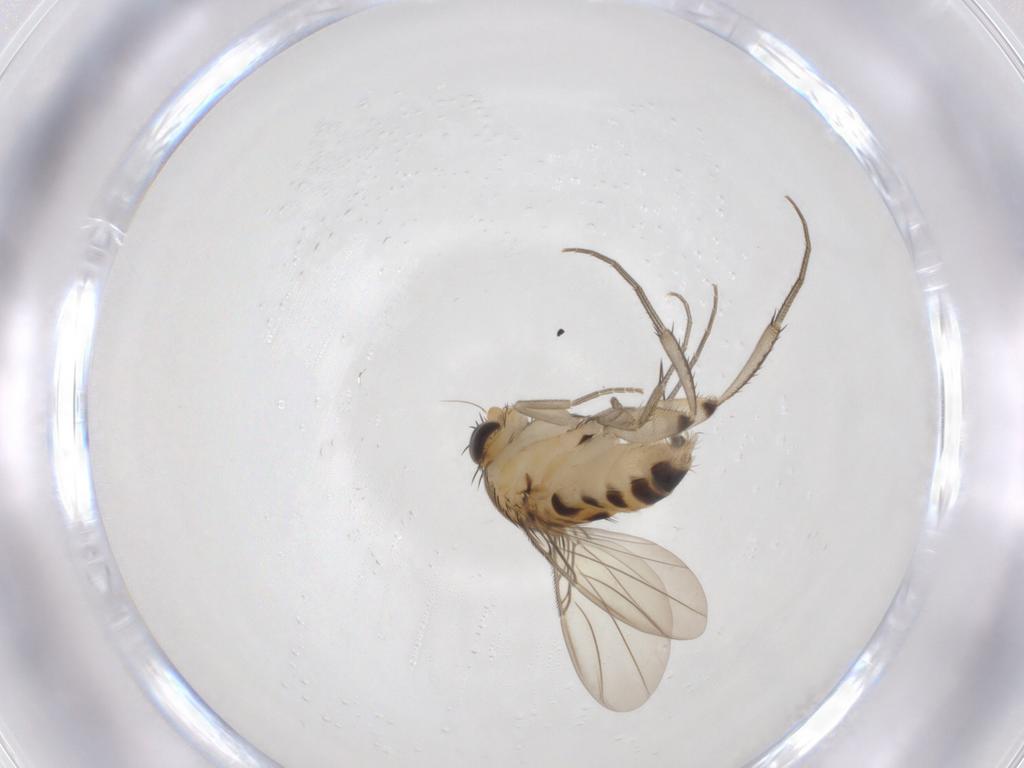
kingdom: Animalia
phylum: Arthropoda
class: Insecta
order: Diptera
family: Phoridae
